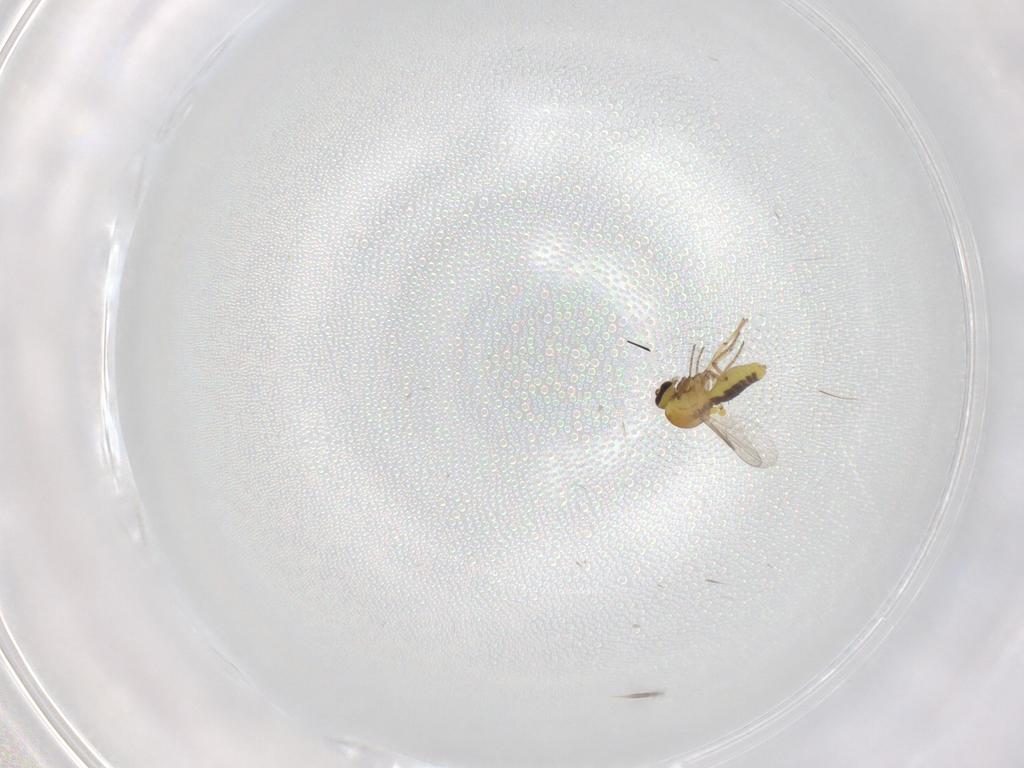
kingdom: Animalia
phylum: Arthropoda
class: Insecta
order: Diptera
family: Ceratopogonidae
